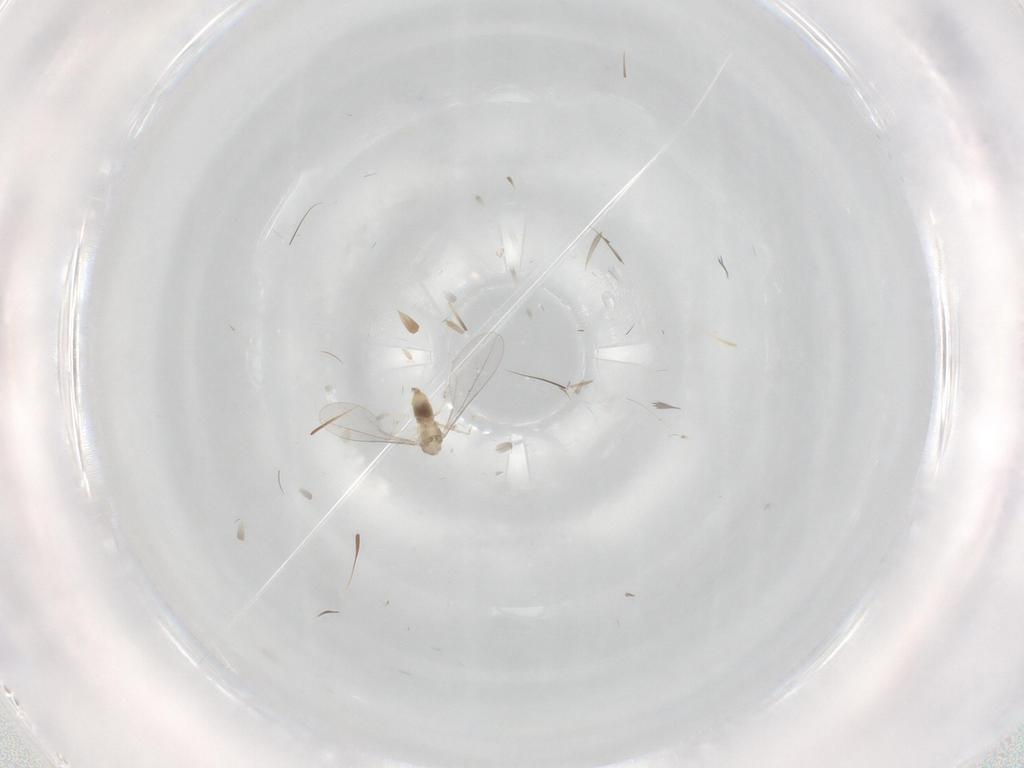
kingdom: Animalia
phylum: Arthropoda
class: Insecta
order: Diptera
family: Chironomidae
